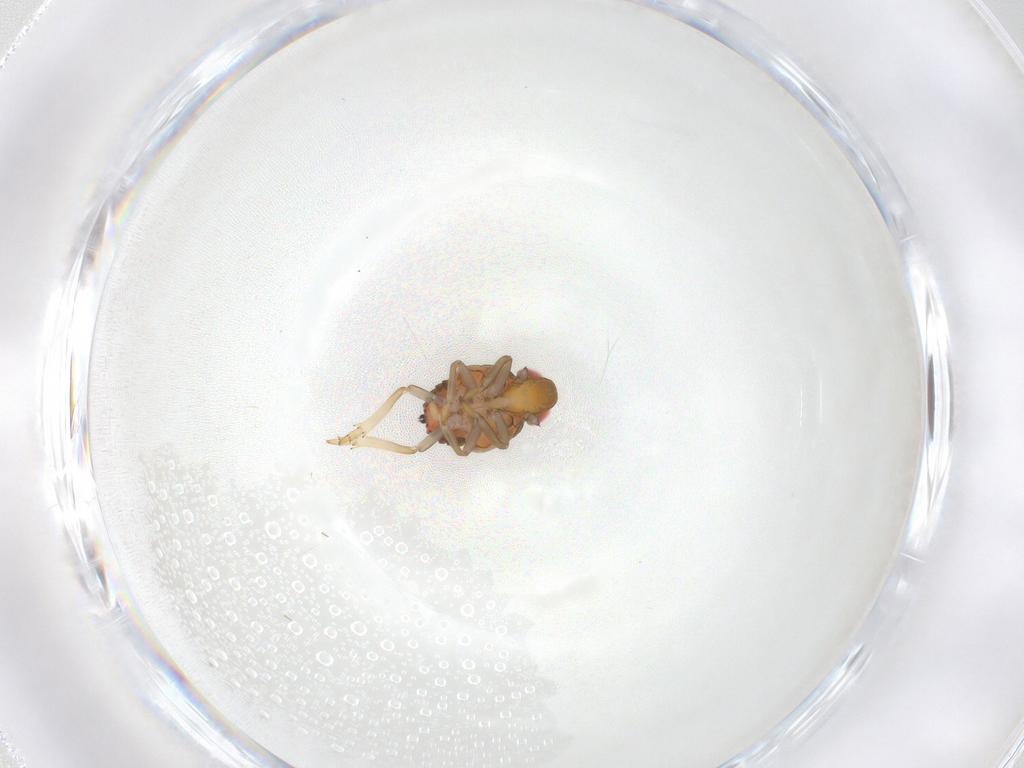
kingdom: Animalia
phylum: Arthropoda
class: Insecta
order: Hemiptera
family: Issidae
